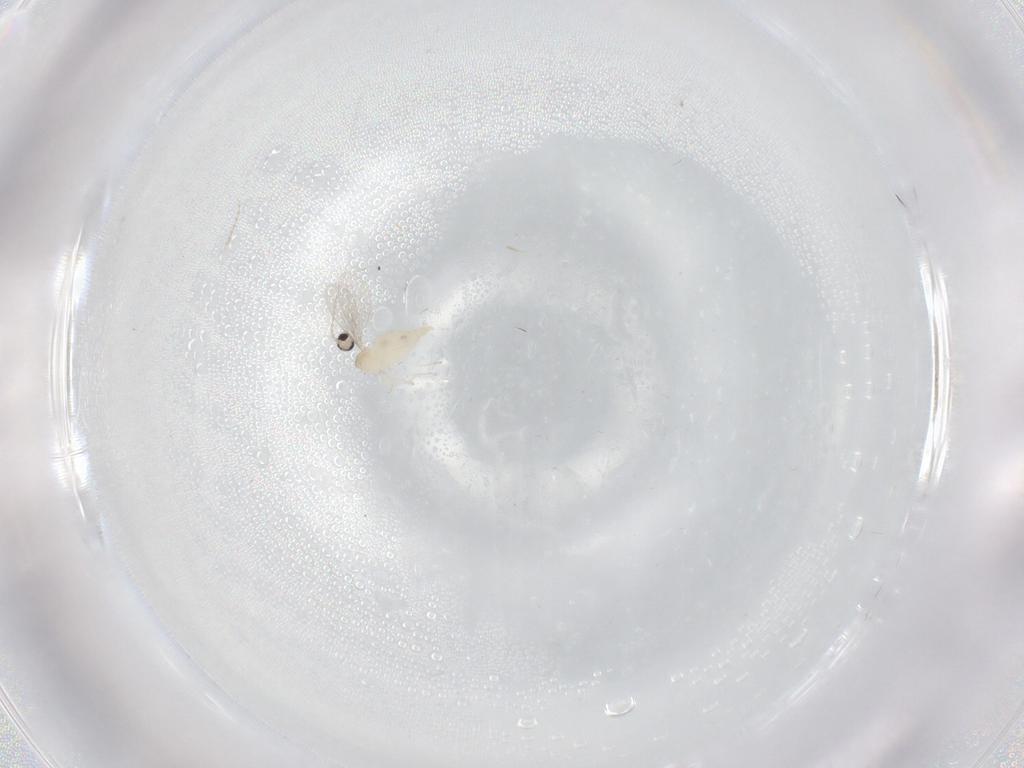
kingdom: Animalia
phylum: Arthropoda
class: Insecta
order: Diptera
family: Cecidomyiidae
